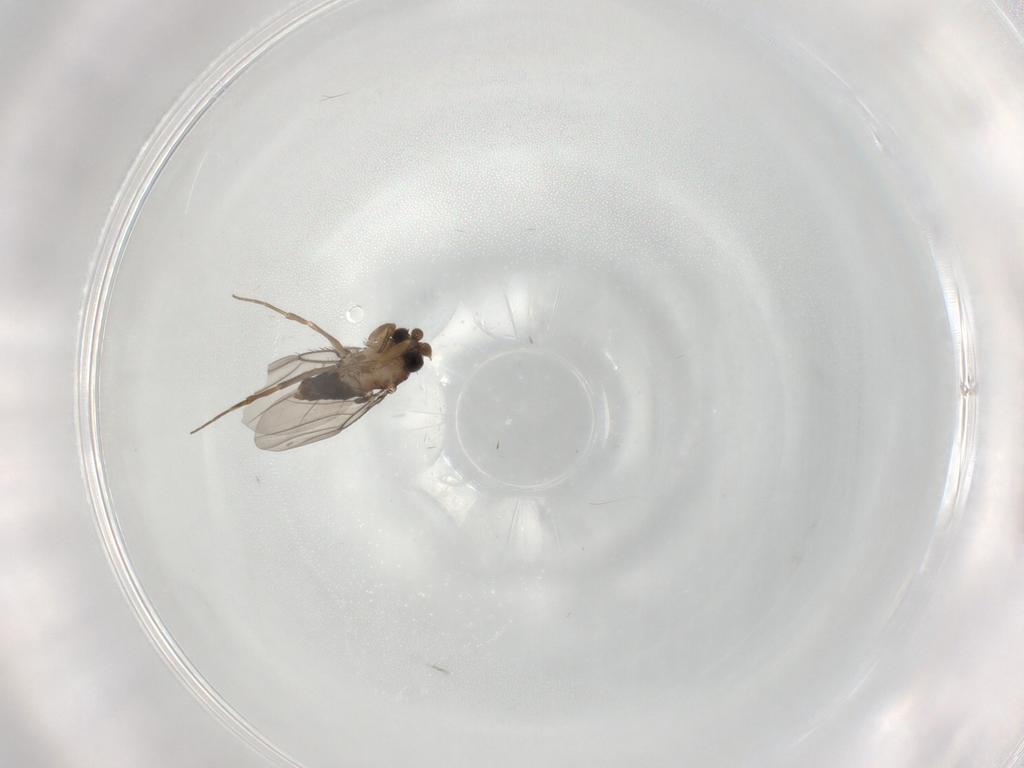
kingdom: Animalia
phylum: Arthropoda
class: Insecta
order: Diptera
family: Phoridae
